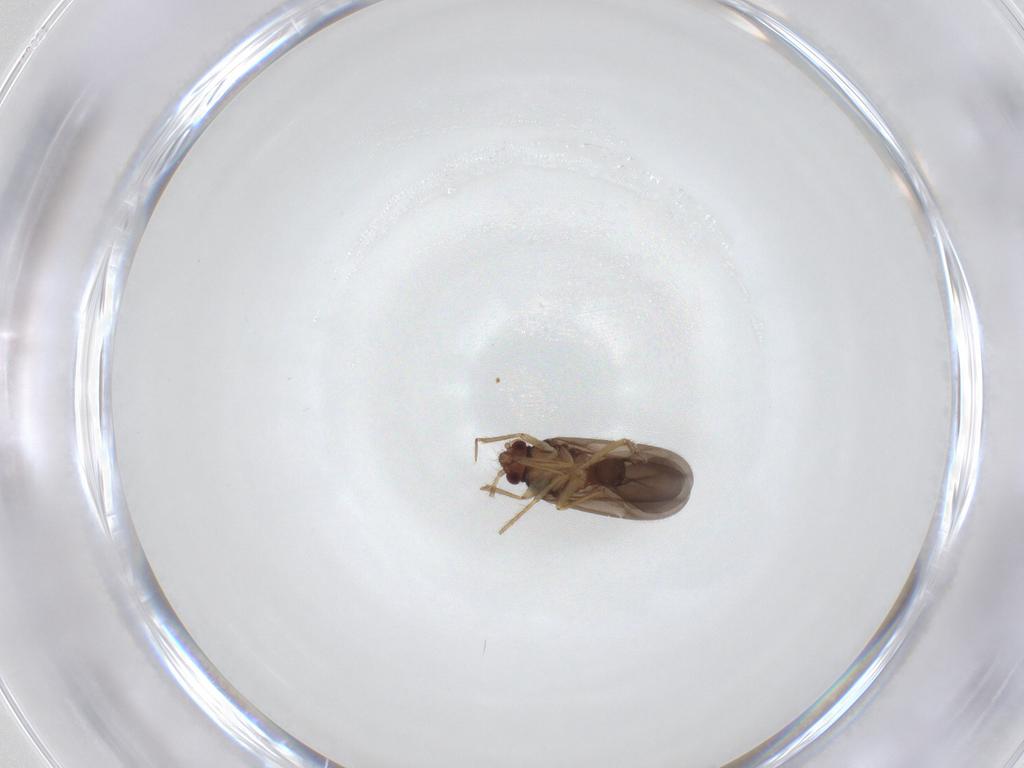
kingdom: Animalia
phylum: Arthropoda
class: Insecta
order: Hemiptera
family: Ceratocombidae
